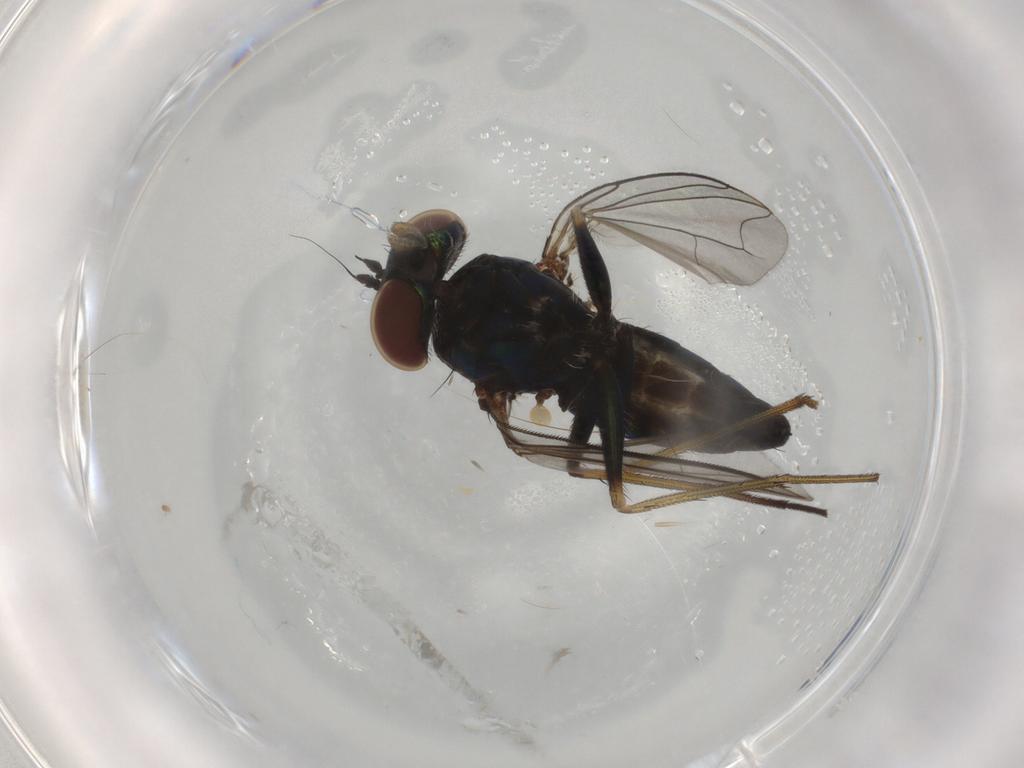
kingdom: Animalia
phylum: Arthropoda
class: Insecta
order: Diptera
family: Dolichopodidae
